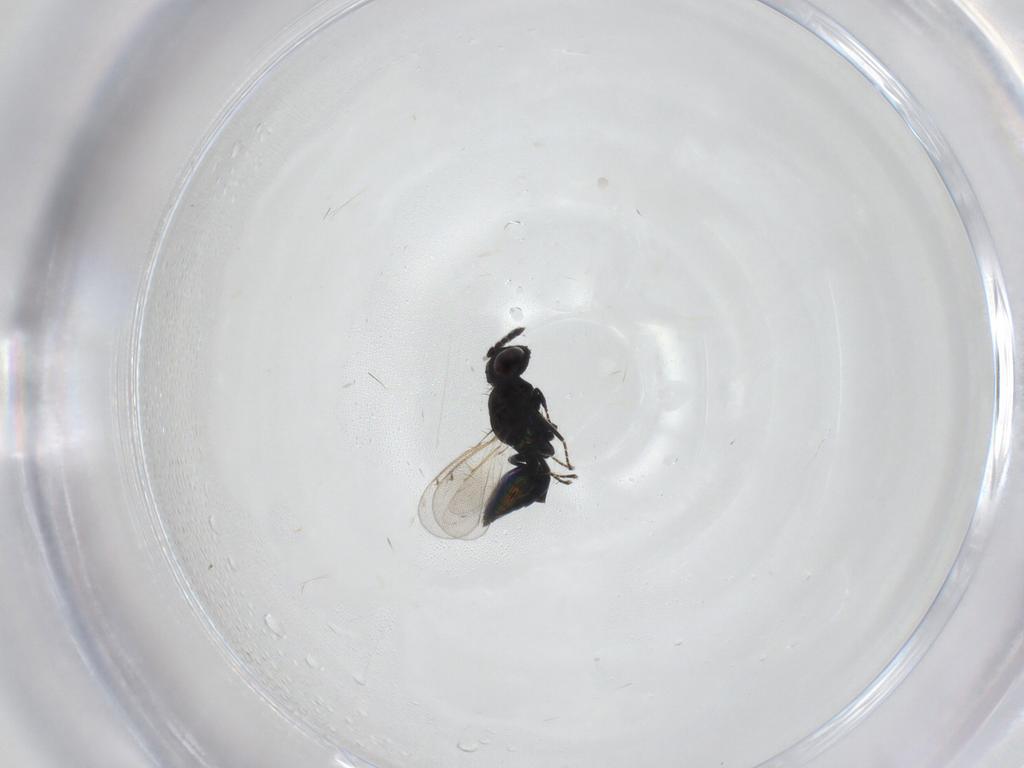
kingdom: Animalia
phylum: Arthropoda
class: Insecta
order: Hymenoptera
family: Eulophidae
